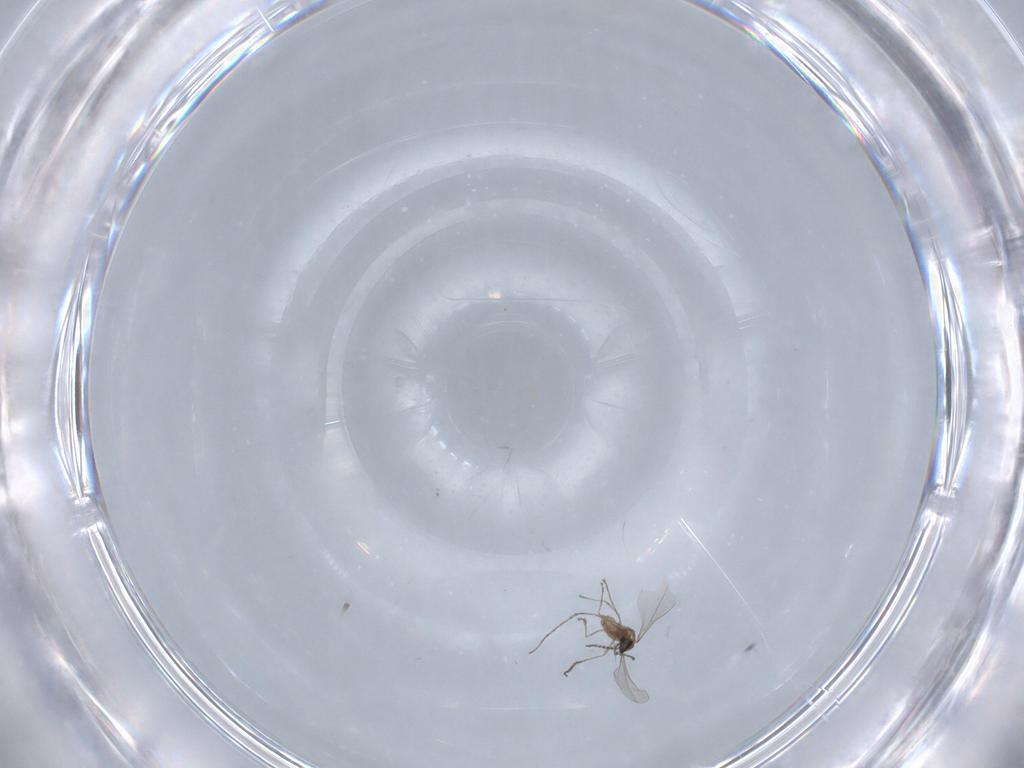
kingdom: Animalia
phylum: Arthropoda
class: Insecta
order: Diptera
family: Cecidomyiidae
